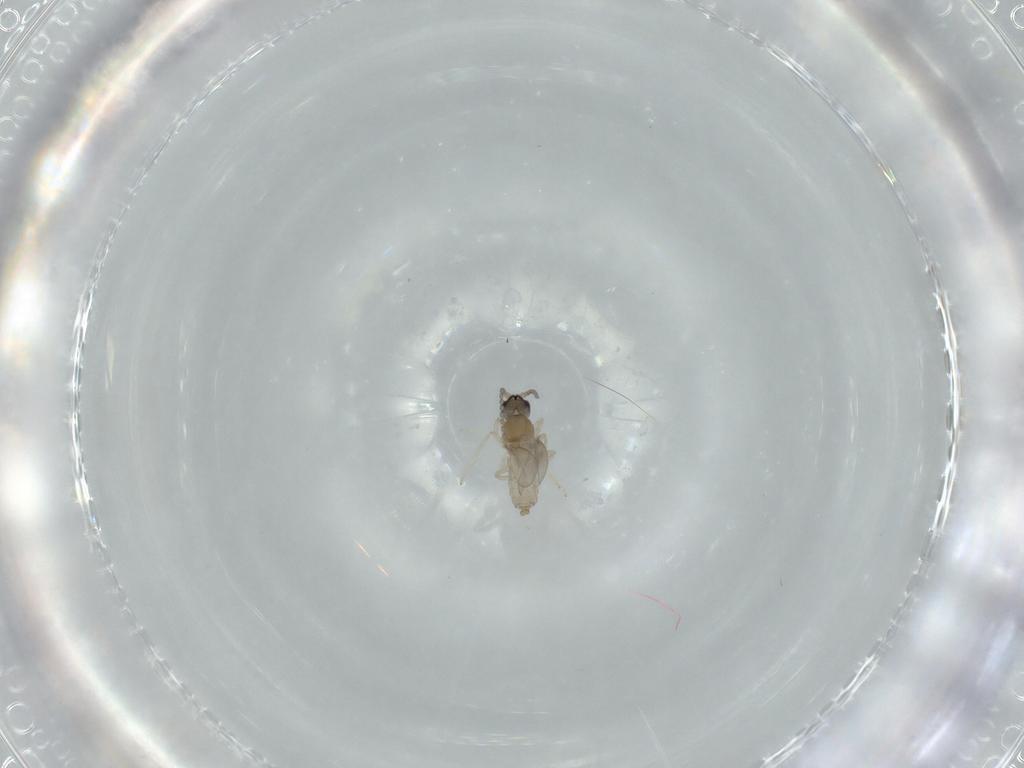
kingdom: Animalia
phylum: Arthropoda
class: Insecta
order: Diptera
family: Cecidomyiidae
